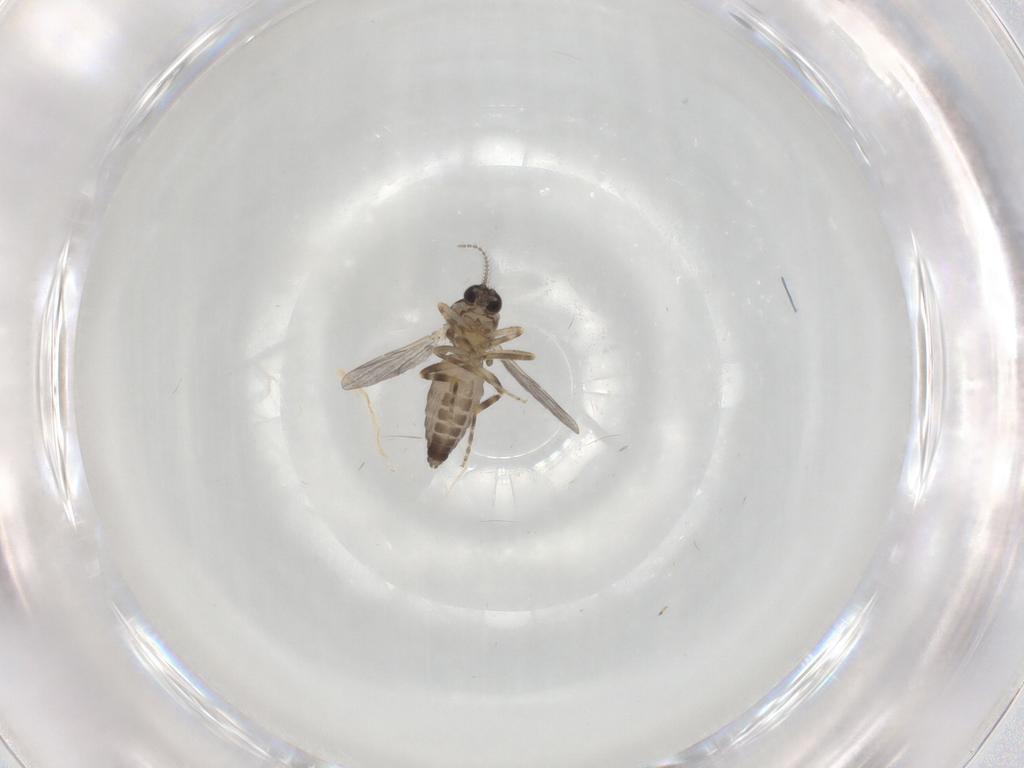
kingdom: Animalia
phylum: Arthropoda
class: Insecta
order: Diptera
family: Ceratopogonidae
